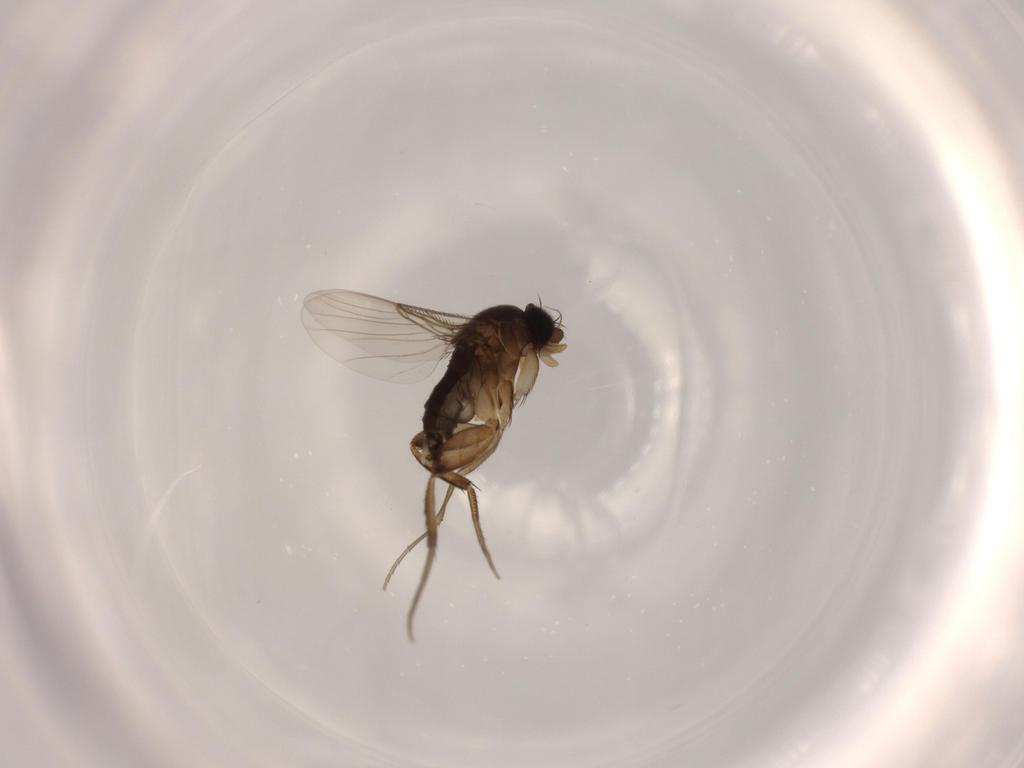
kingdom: Animalia
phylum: Arthropoda
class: Insecta
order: Diptera
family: Phoridae
